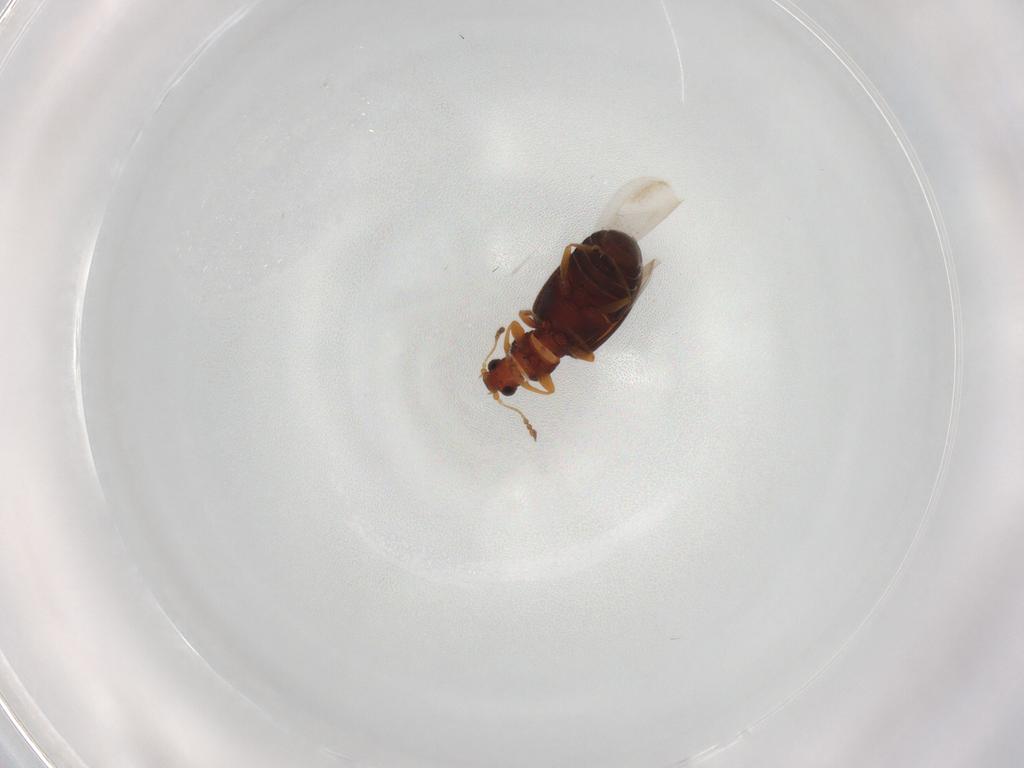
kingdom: Animalia
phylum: Arthropoda
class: Insecta
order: Coleoptera
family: Latridiidae
